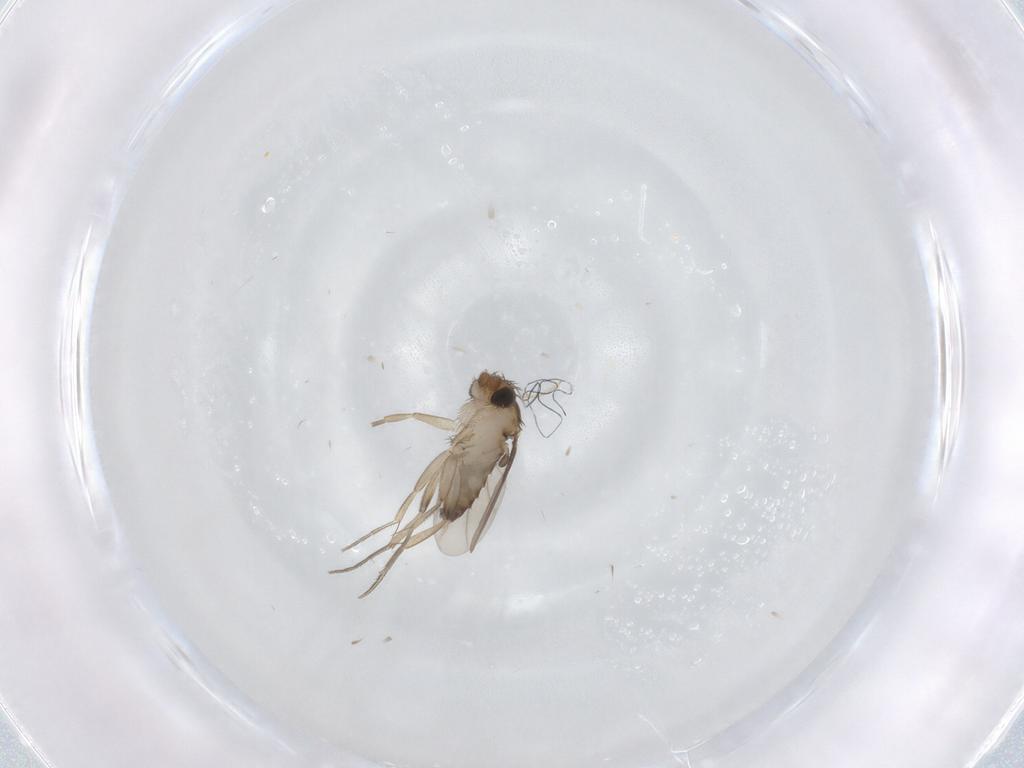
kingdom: Animalia
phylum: Arthropoda
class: Insecta
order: Diptera
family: Phoridae
